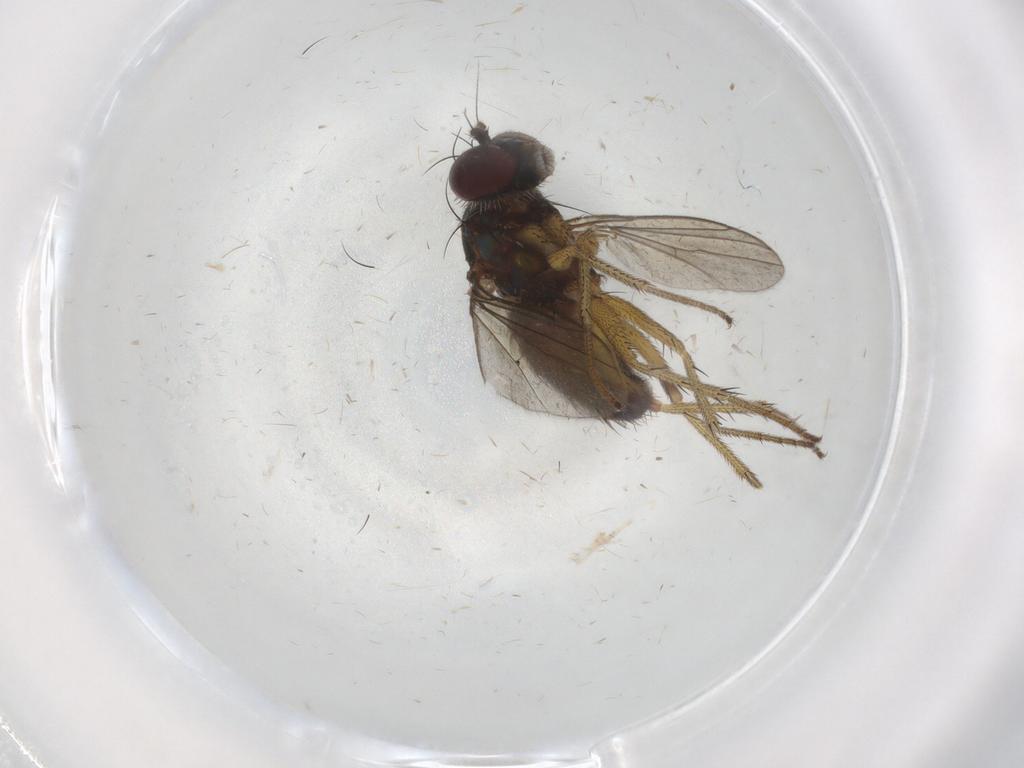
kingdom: Animalia
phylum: Arthropoda
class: Insecta
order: Diptera
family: Dolichopodidae
